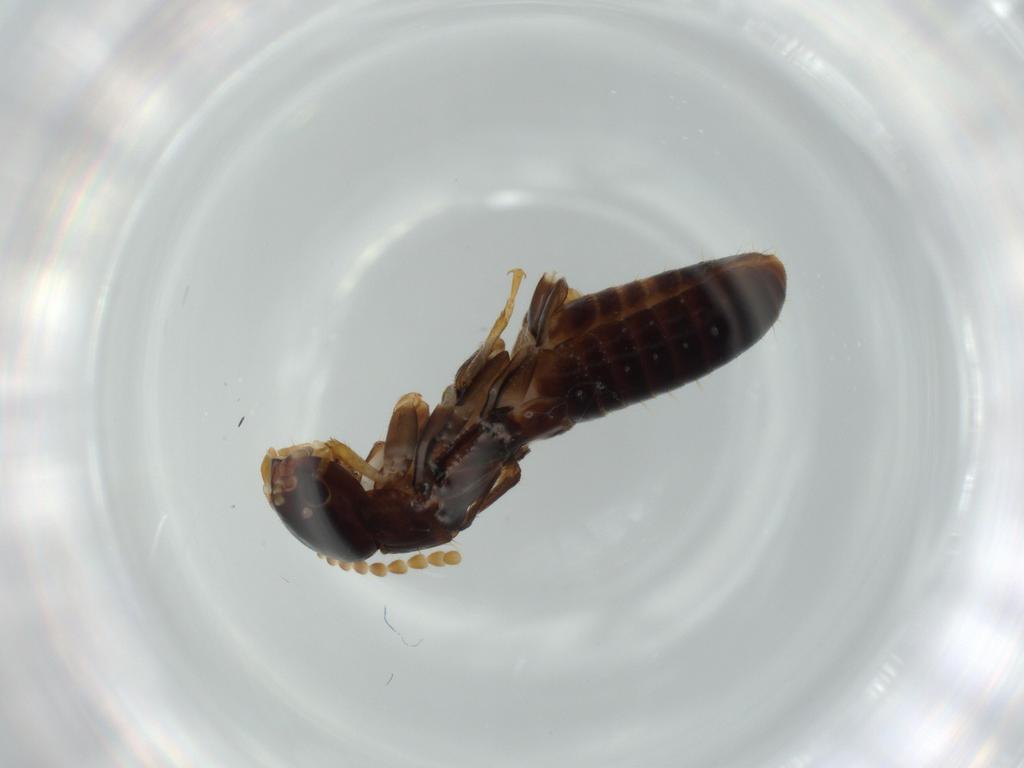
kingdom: Animalia
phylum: Arthropoda
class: Insecta
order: Blattodea
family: Kalotermitidae
